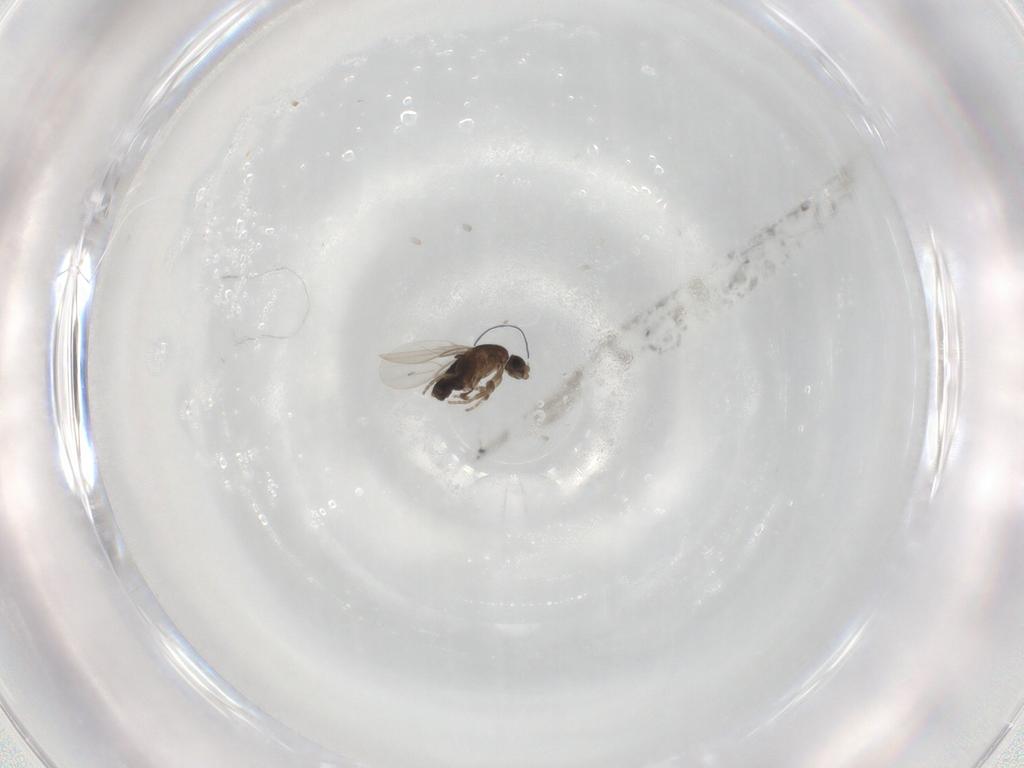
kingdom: Animalia
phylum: Arthropoda
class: Insecta
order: Diptera
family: Phoridae
